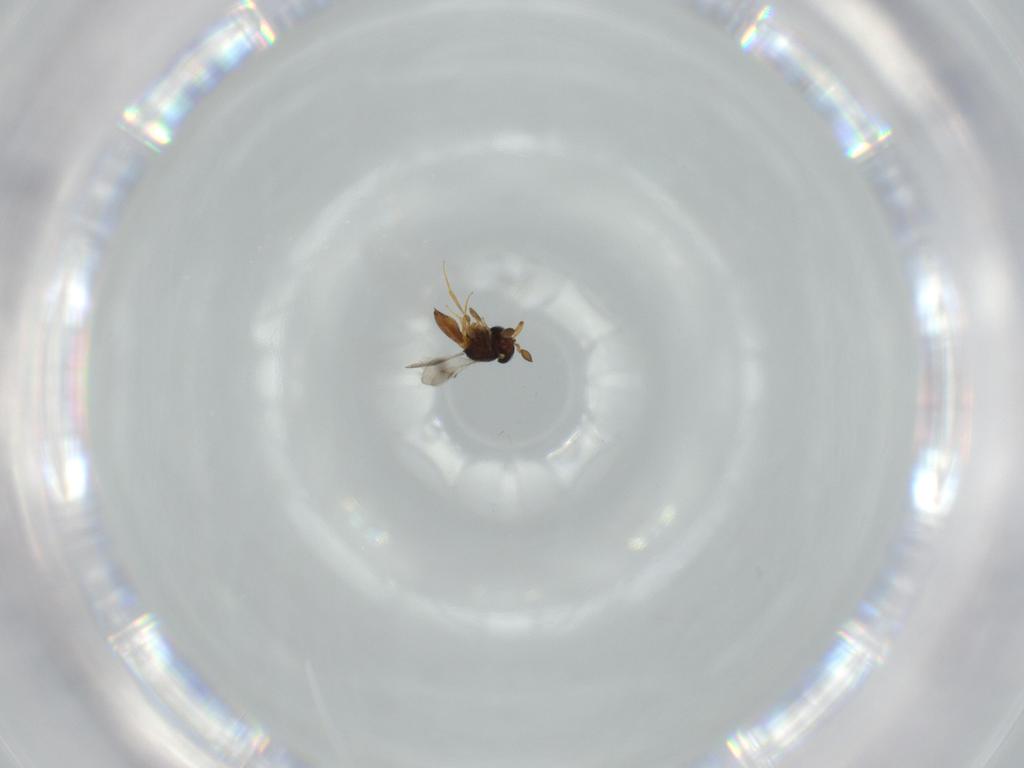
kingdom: Animalia
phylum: Arthropoda
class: Insecta
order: Hymenoptera
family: Scelionidae
